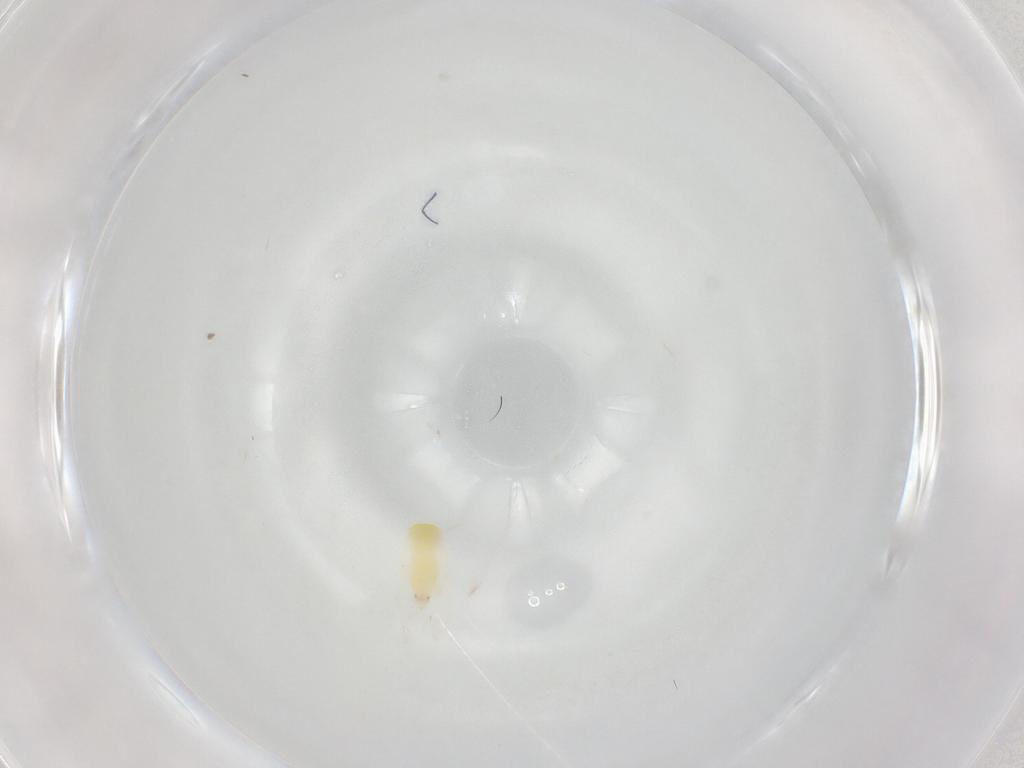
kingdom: Animalia
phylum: Arthropoda
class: Insecta
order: Hemiptera
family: Aleyrodidae
